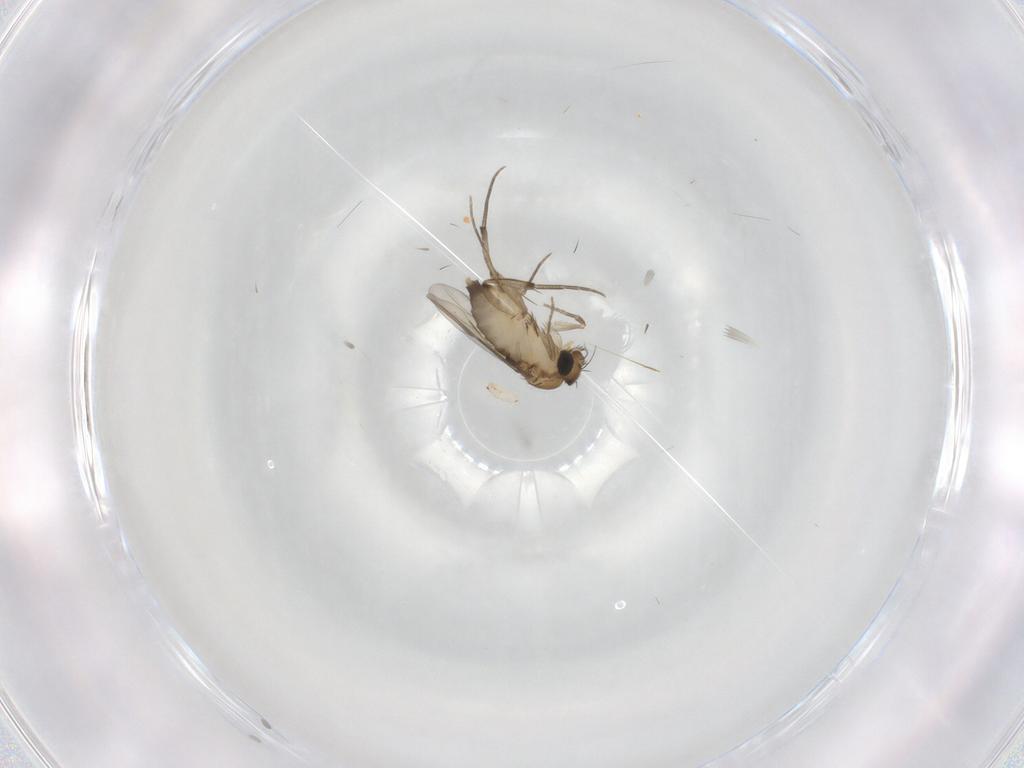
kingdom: Animalia
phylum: Arthropoda
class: Insecta
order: Diptera
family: Phoridae
